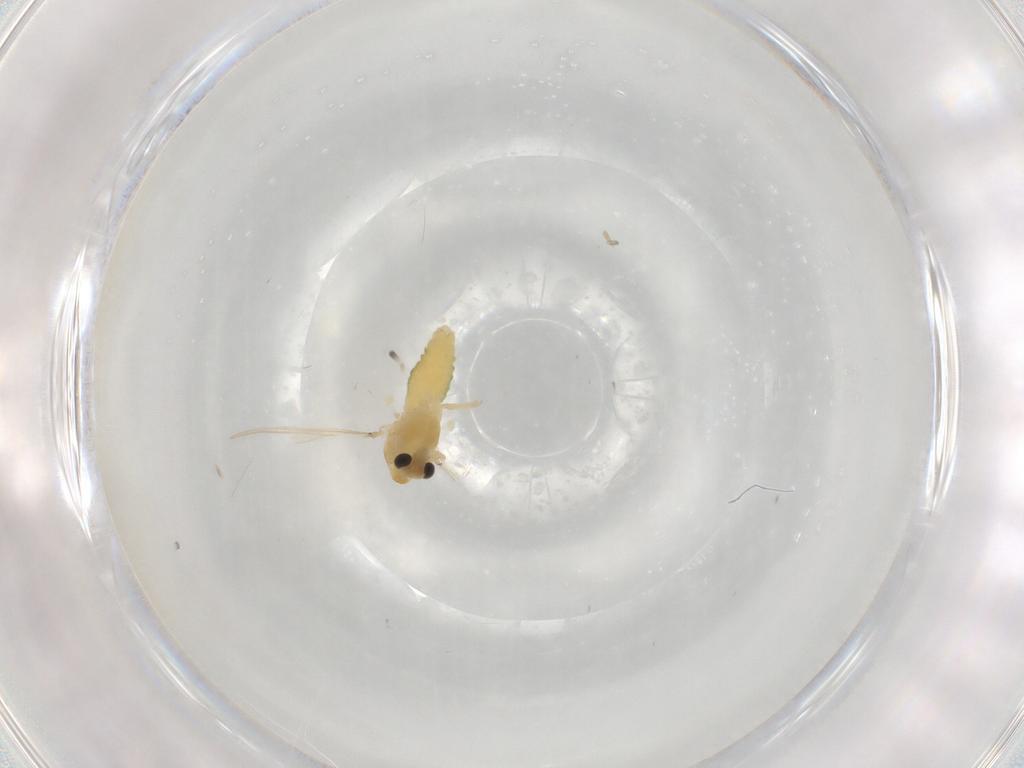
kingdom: Animalia
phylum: Arthropoda
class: Insecta
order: Diptera
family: Chironomidae
